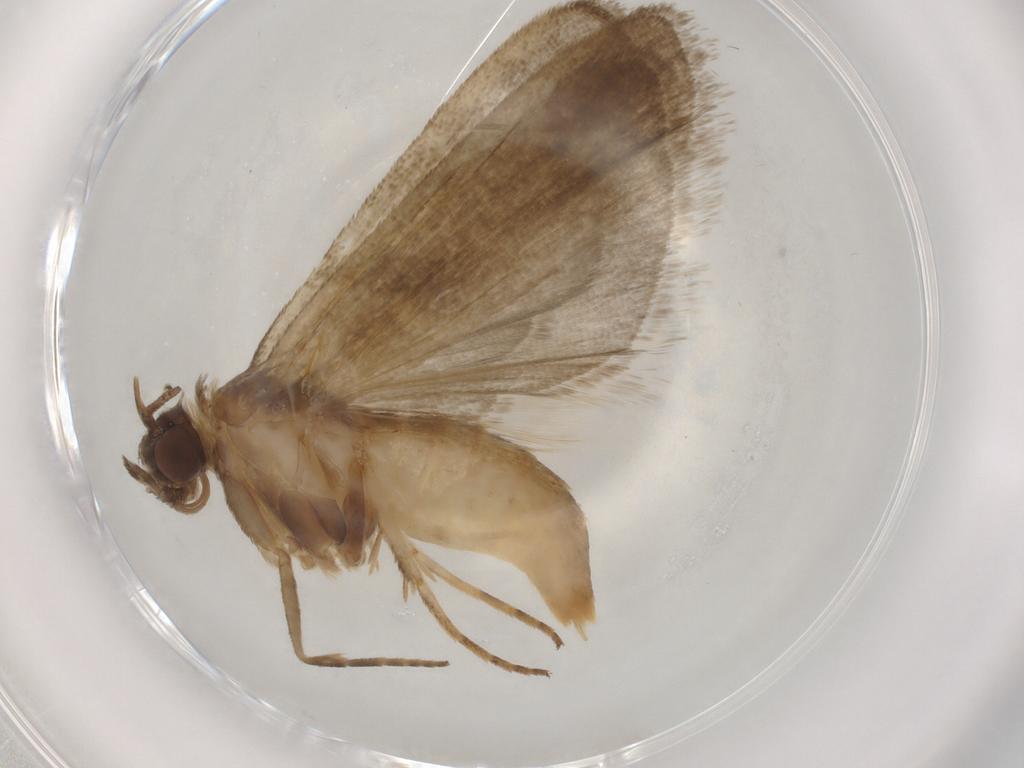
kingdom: Animalia
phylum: Arthropoda
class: Insecta
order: Lepidoptera
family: Noctuidae
